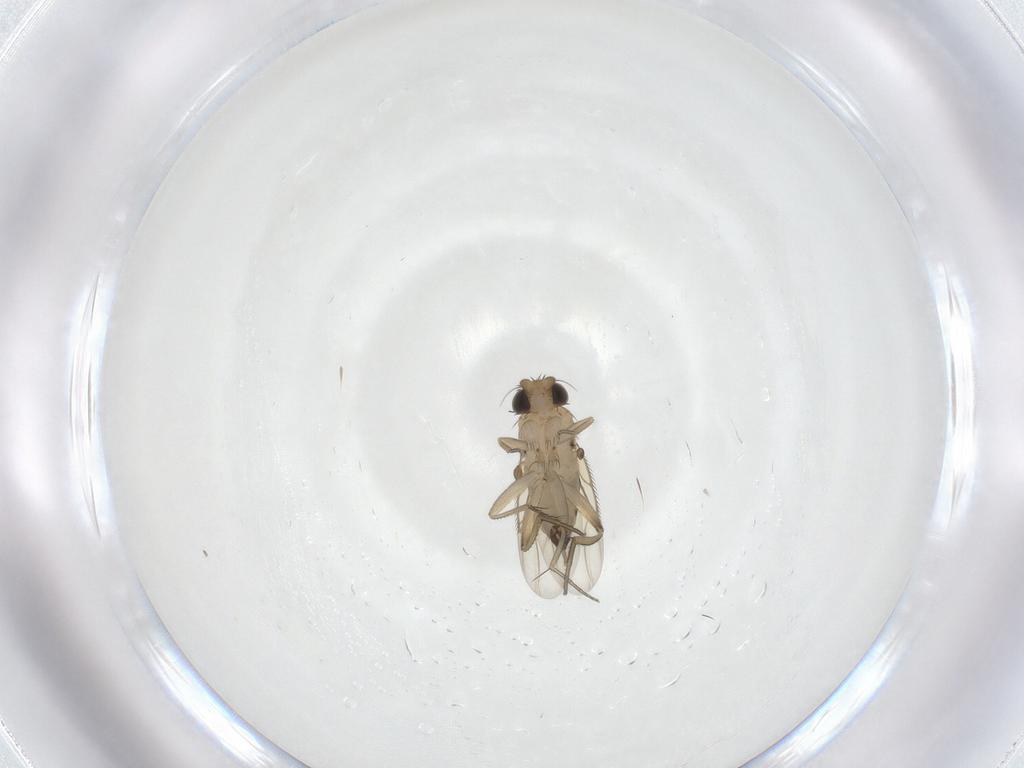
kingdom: Animalia
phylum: Arthropoda
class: Insecta
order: Diptera
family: Phoridae
